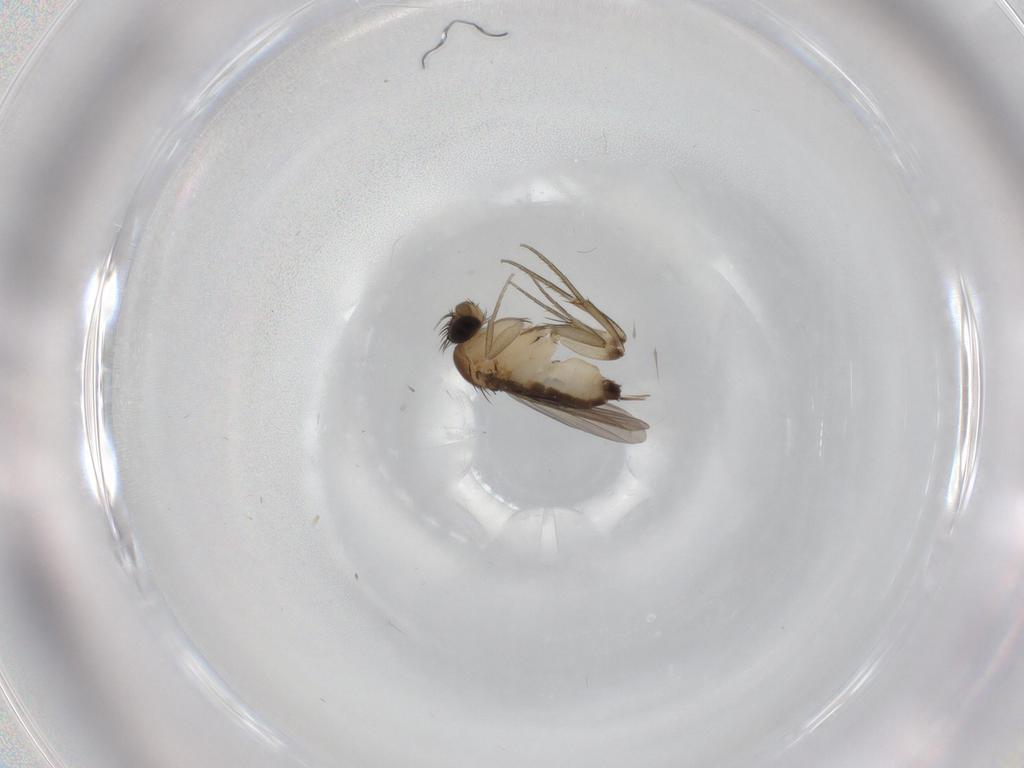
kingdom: Animalia
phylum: Arthropoda
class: Insecta
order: Diptera
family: Phoridae
